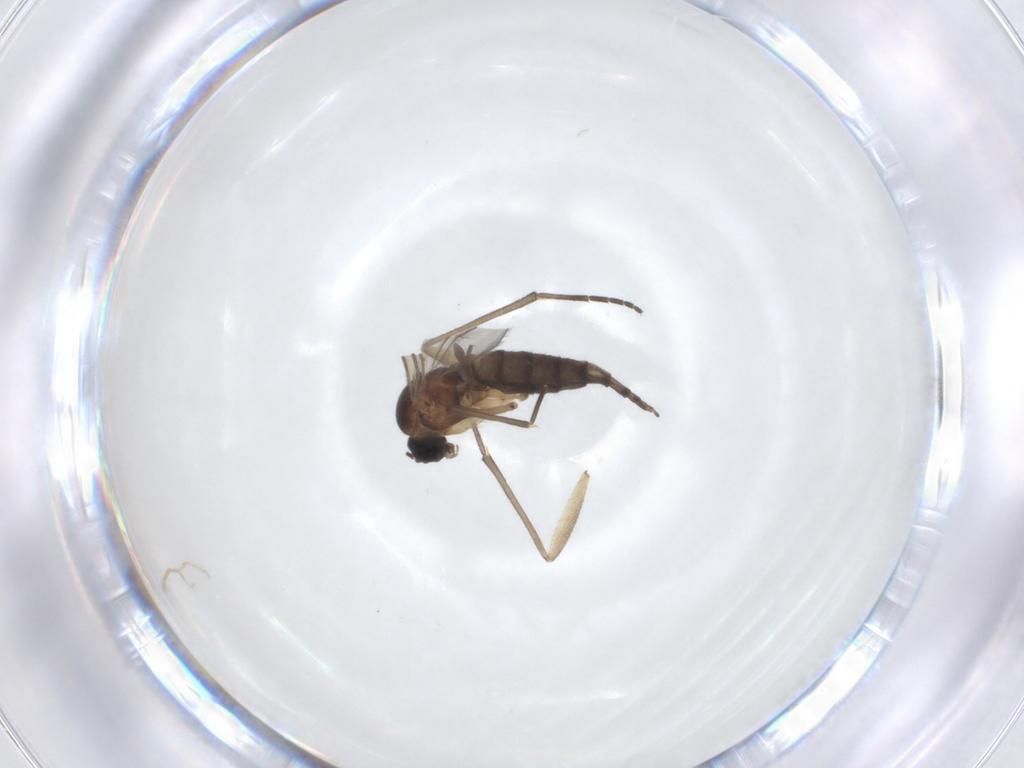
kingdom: Animalia
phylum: Arthropoda
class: Insecta
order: Diptera
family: Sciaridae
